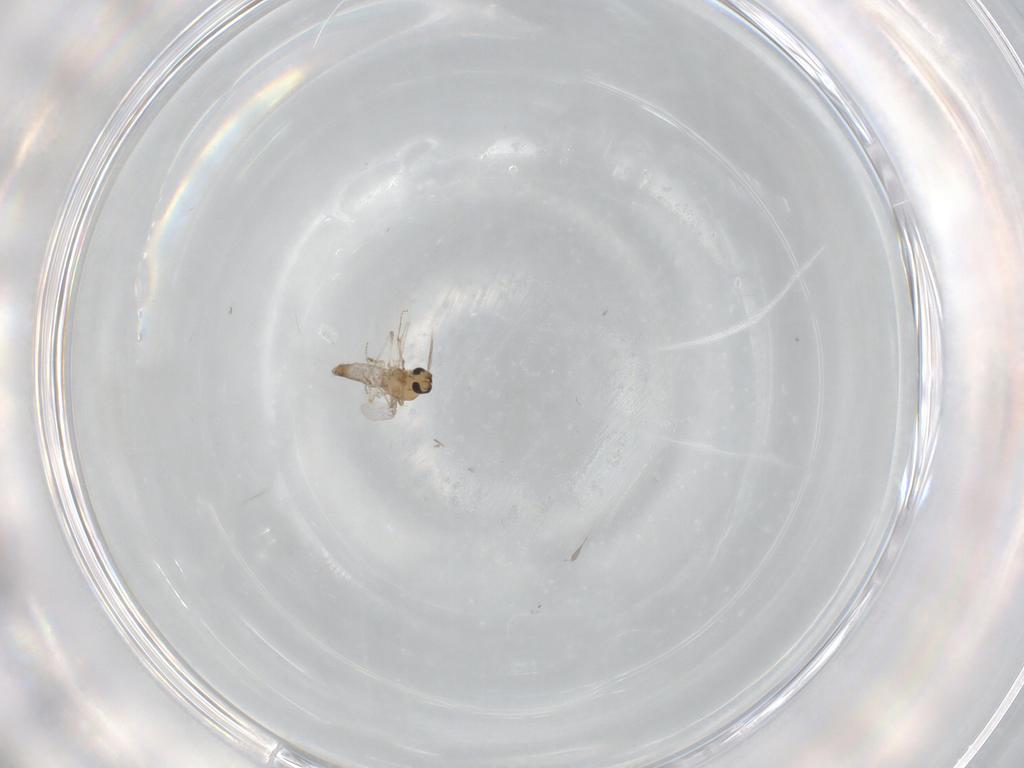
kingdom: Animalia
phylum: Arthropoda
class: Insecta
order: Diptera
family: Ceratopogonidae
